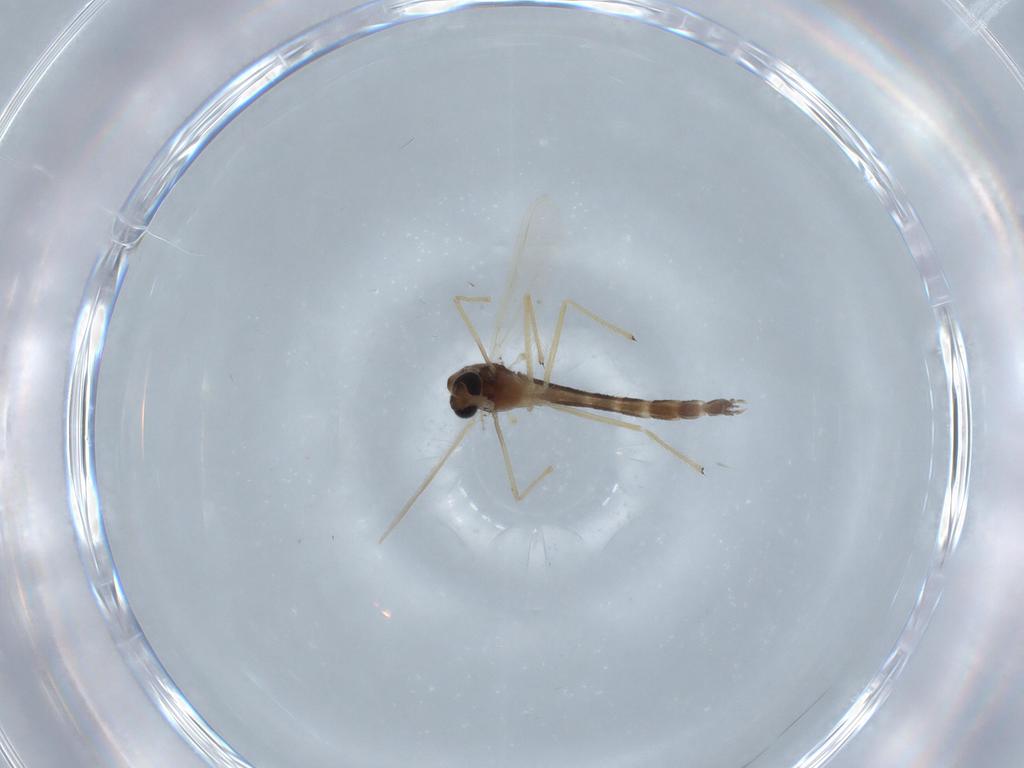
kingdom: Animalia
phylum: Arthropoda
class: Insecta
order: Diptera
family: Chironomidae
